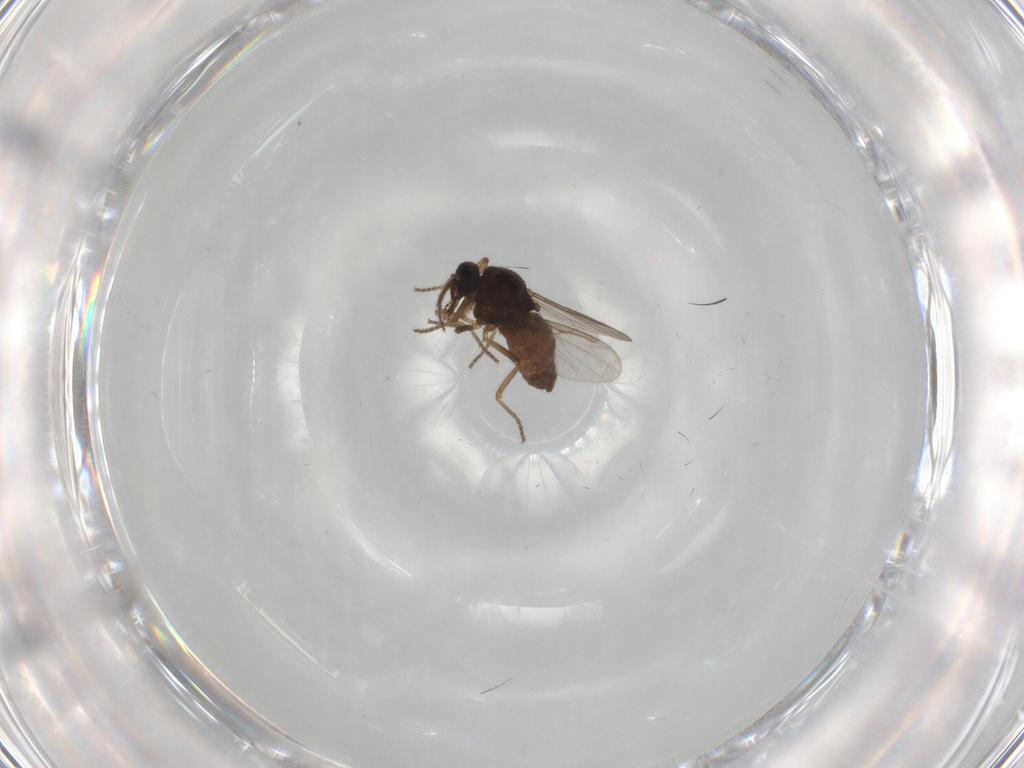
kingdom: Animalia
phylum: Arthropoda
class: Insecta
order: Diptera
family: Ceratopogonidae
